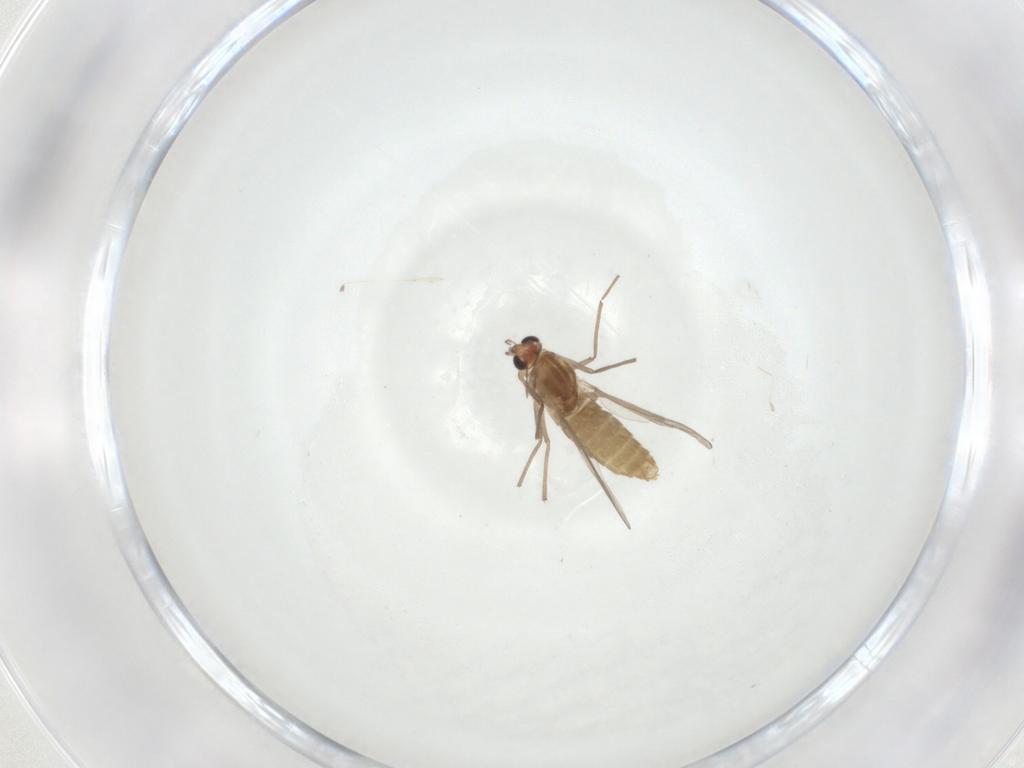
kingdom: Animalia
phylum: Arthropoda
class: Insecta
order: Diptera
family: Chironomidae
